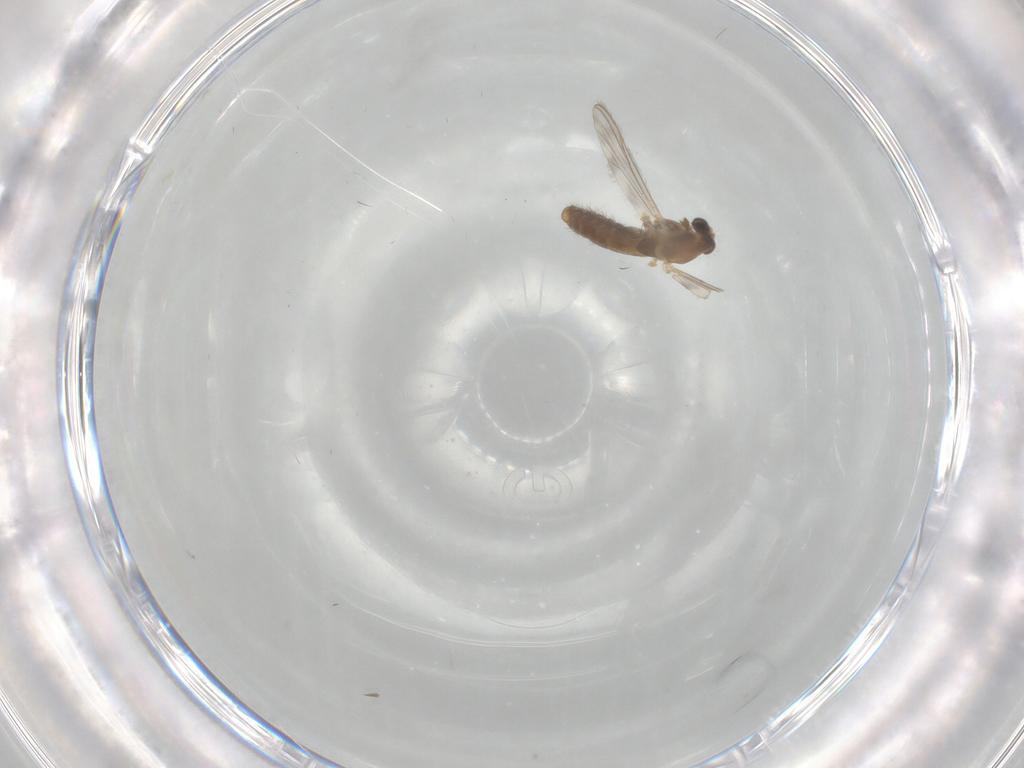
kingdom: Animalia
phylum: Arthropoda
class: Insecta
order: Diptera
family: Chironomidae
